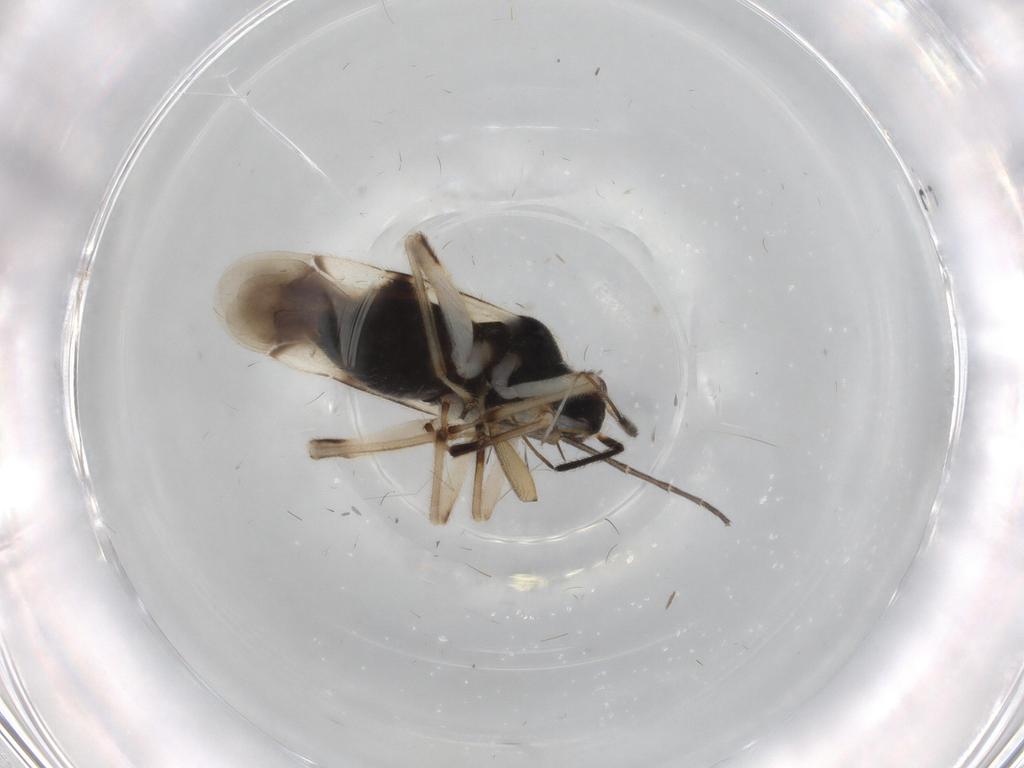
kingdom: Animalia
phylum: Arthropoda
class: Insecta
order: Hemiptera
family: Miridae
